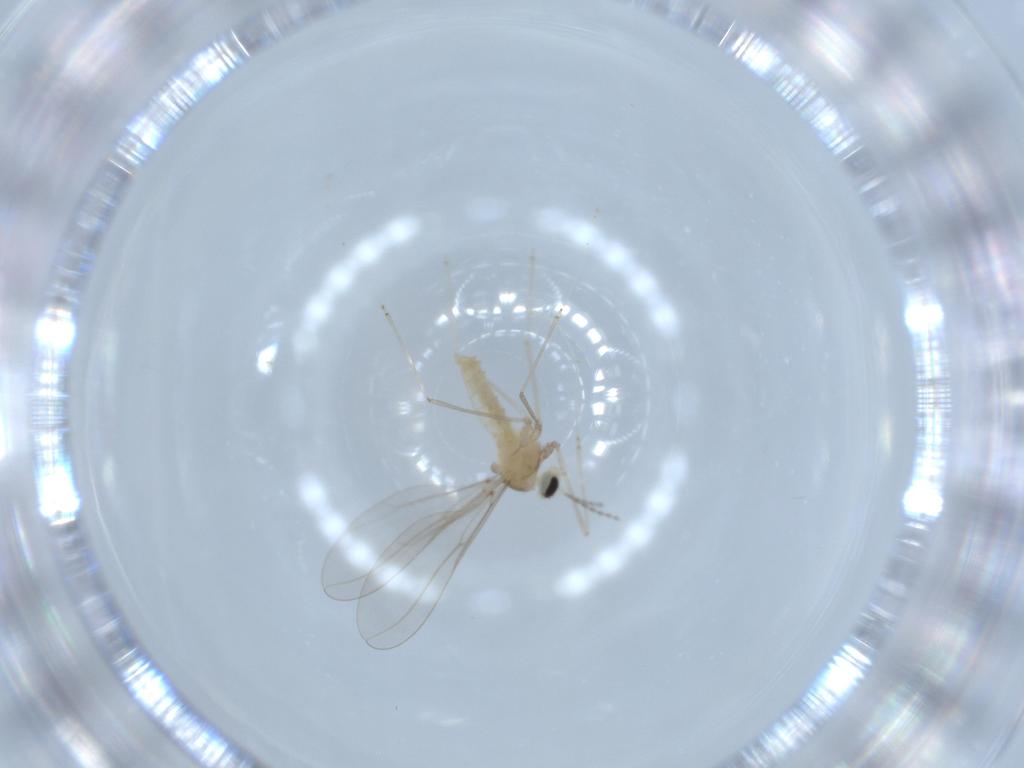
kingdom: Animalia
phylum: Arthropoda
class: Insecta
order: Diptera
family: Cecidomyiidae
